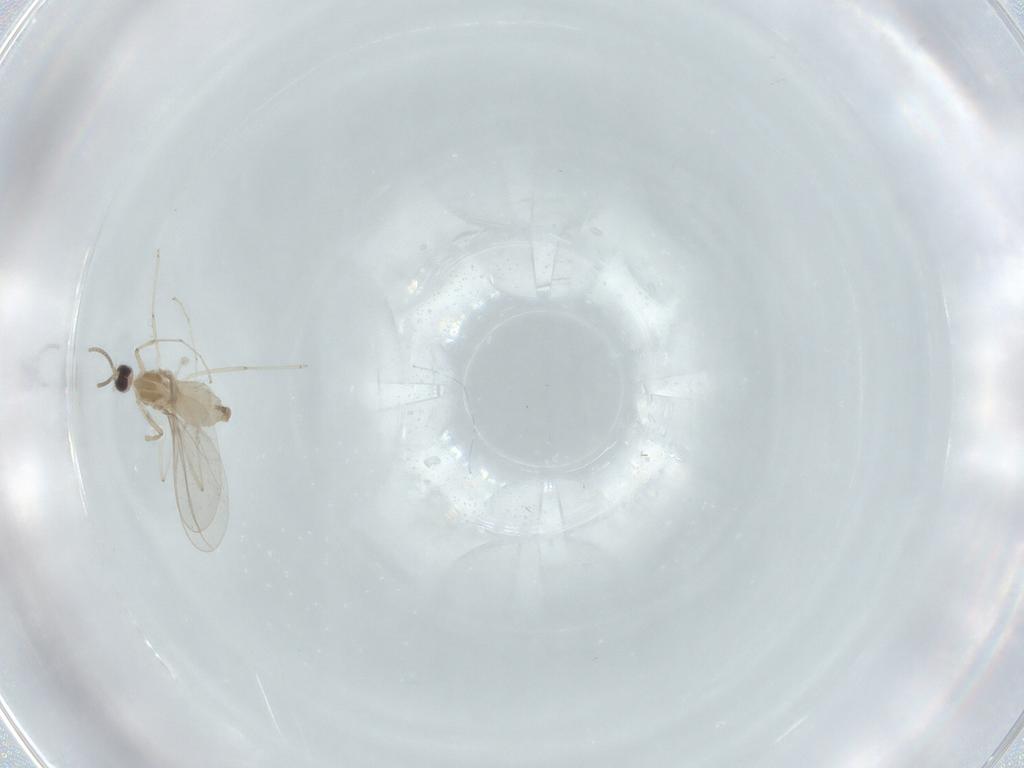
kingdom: Animalia
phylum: Arthropoda
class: Insecta
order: Diptera
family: Cecidomyiidae
